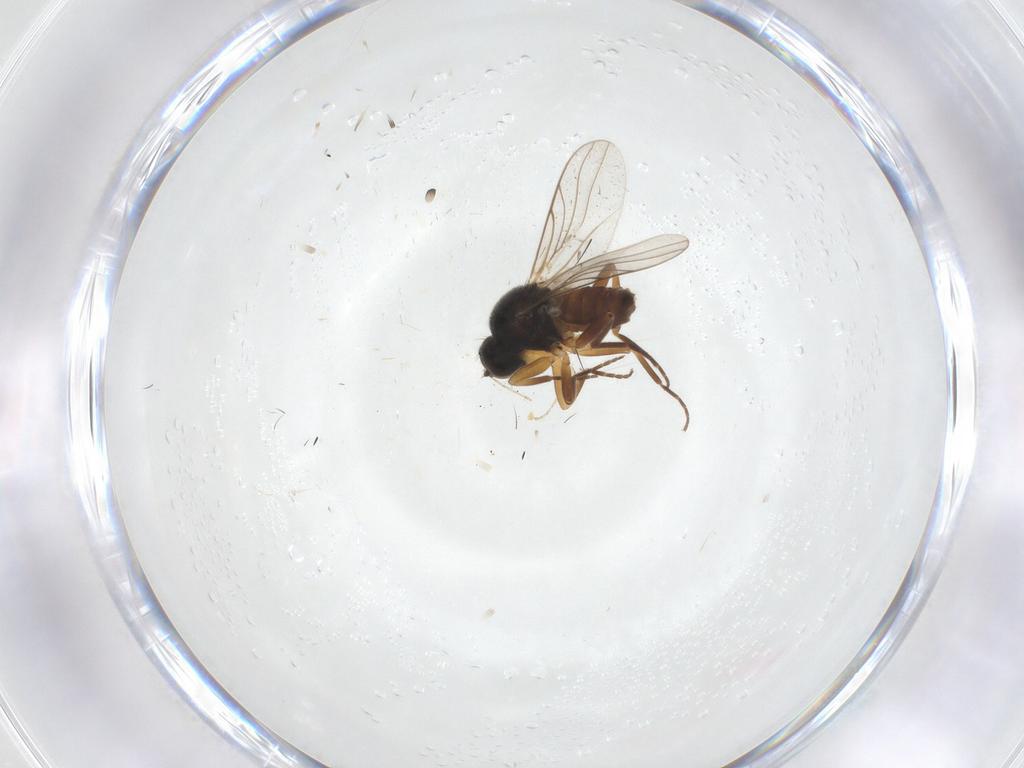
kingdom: Animalia
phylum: Arthropoda
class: Insecta
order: Diptera
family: Hybotidae
